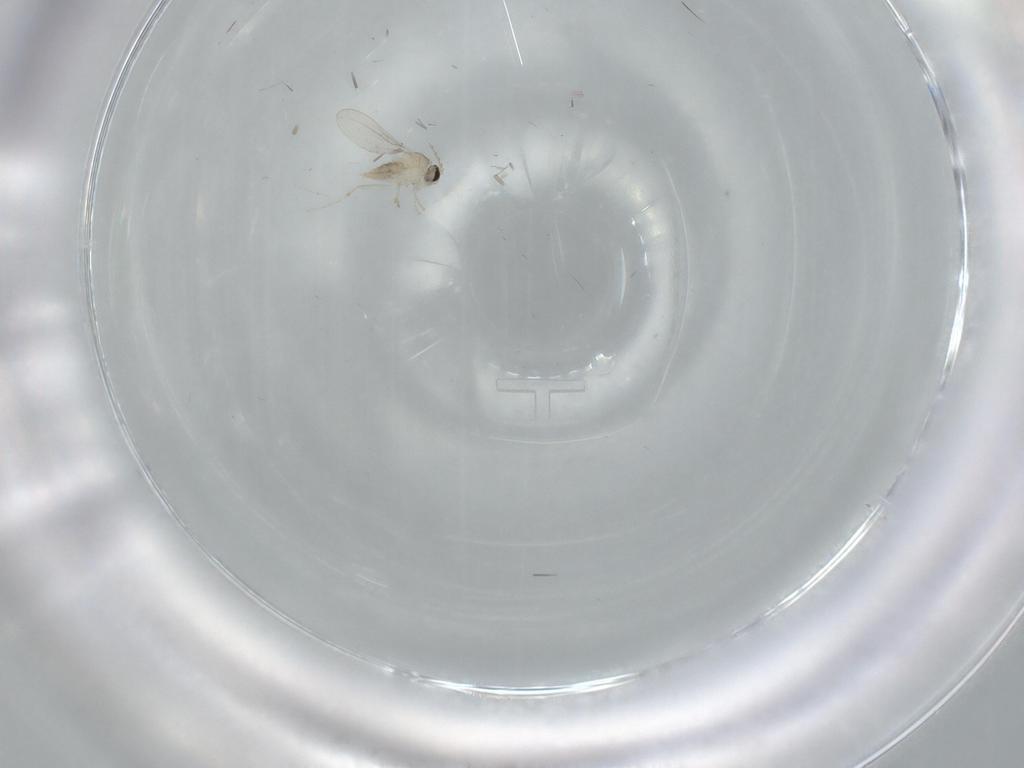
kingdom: Animalia
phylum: Arthropoda
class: Insecta
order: Diptera
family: Cecidomyiidae
